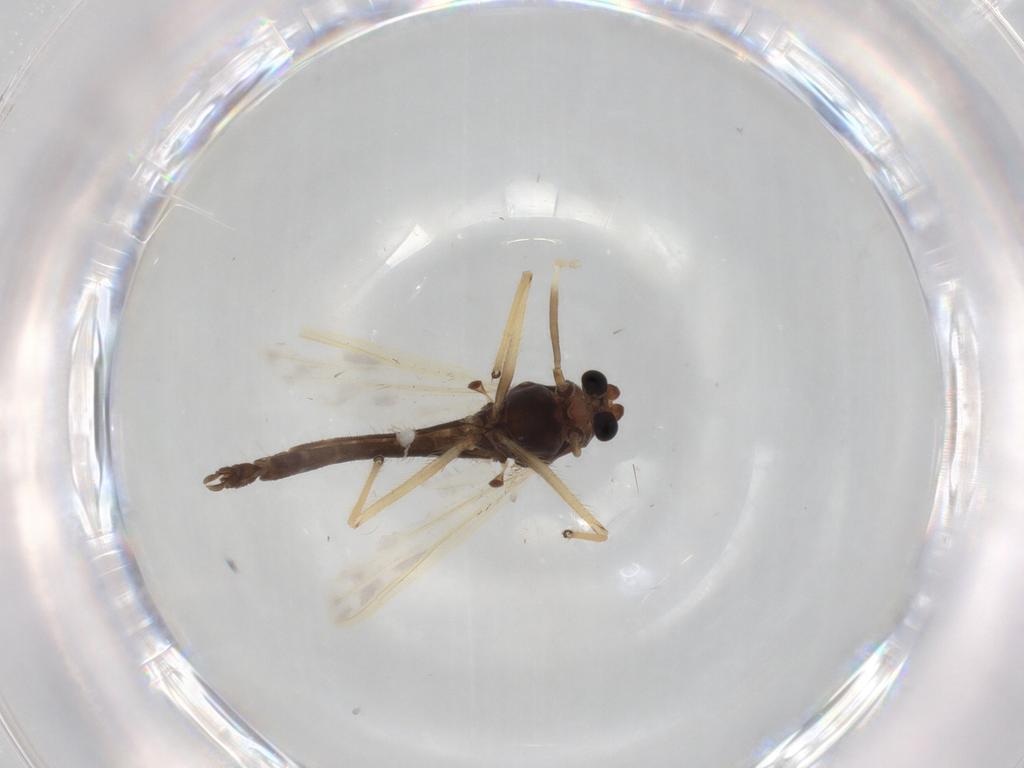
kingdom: Animalia
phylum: Arthropoda
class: Insecta
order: Diptera
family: Chironomidae
